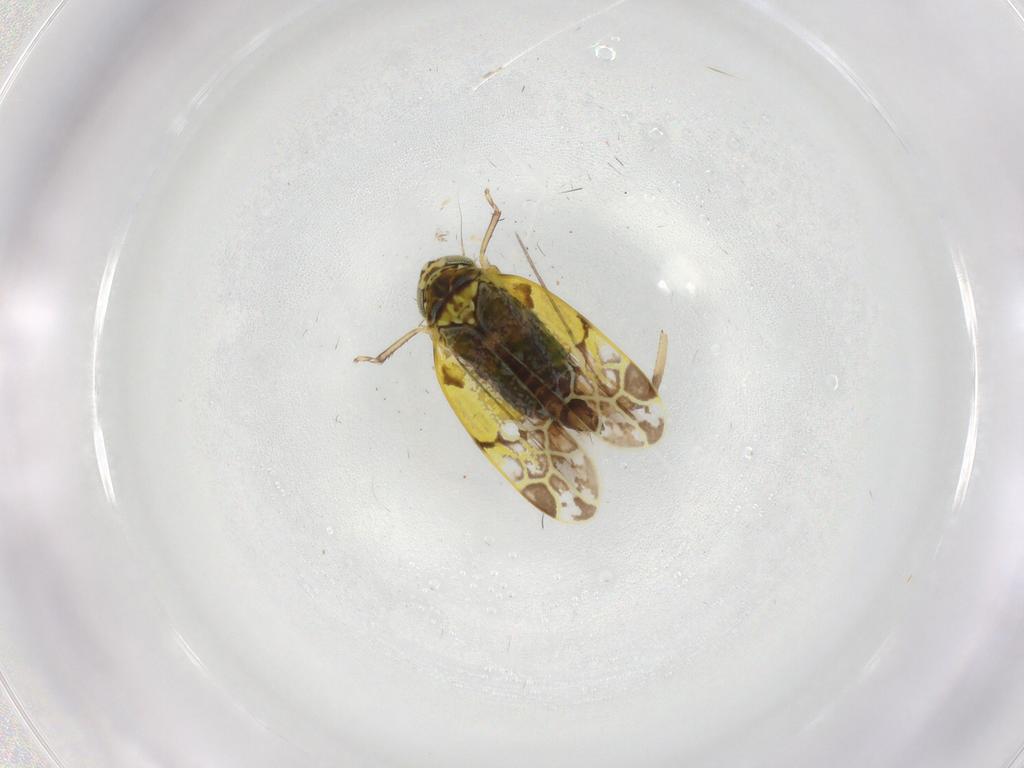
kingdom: Animalia
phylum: Arthropoda
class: Insecta
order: Hemiptera
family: Cicadellidae
